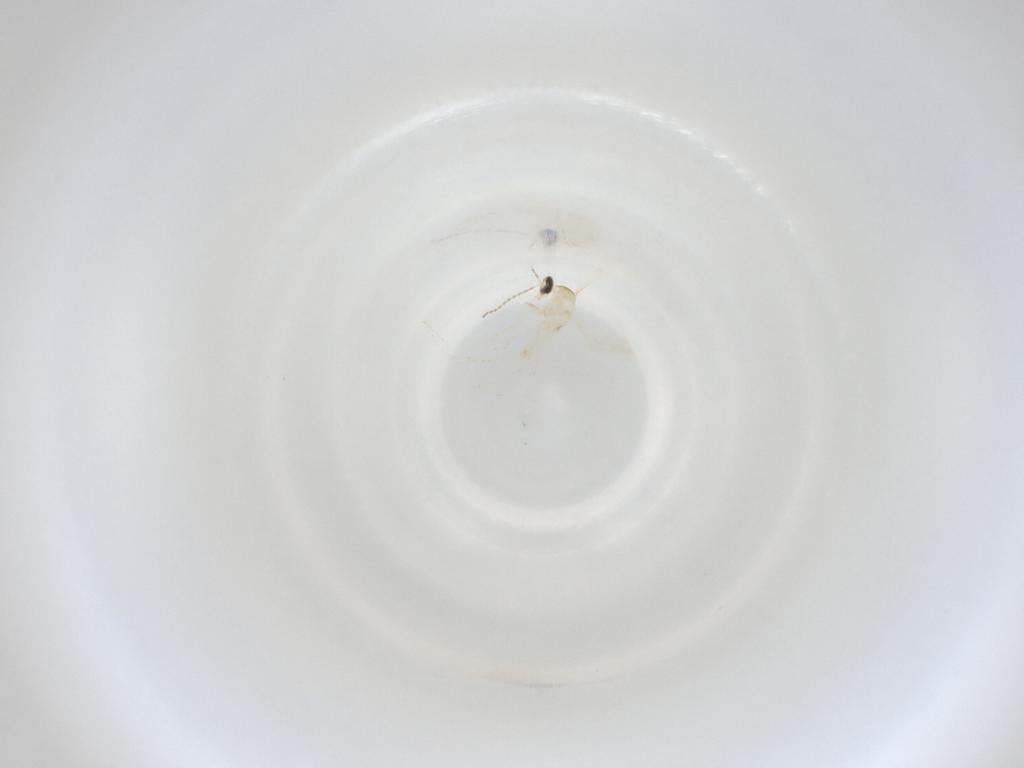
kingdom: Animalia
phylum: Arthropoda
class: Insecta
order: Diptera
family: Cecidomyiidae
